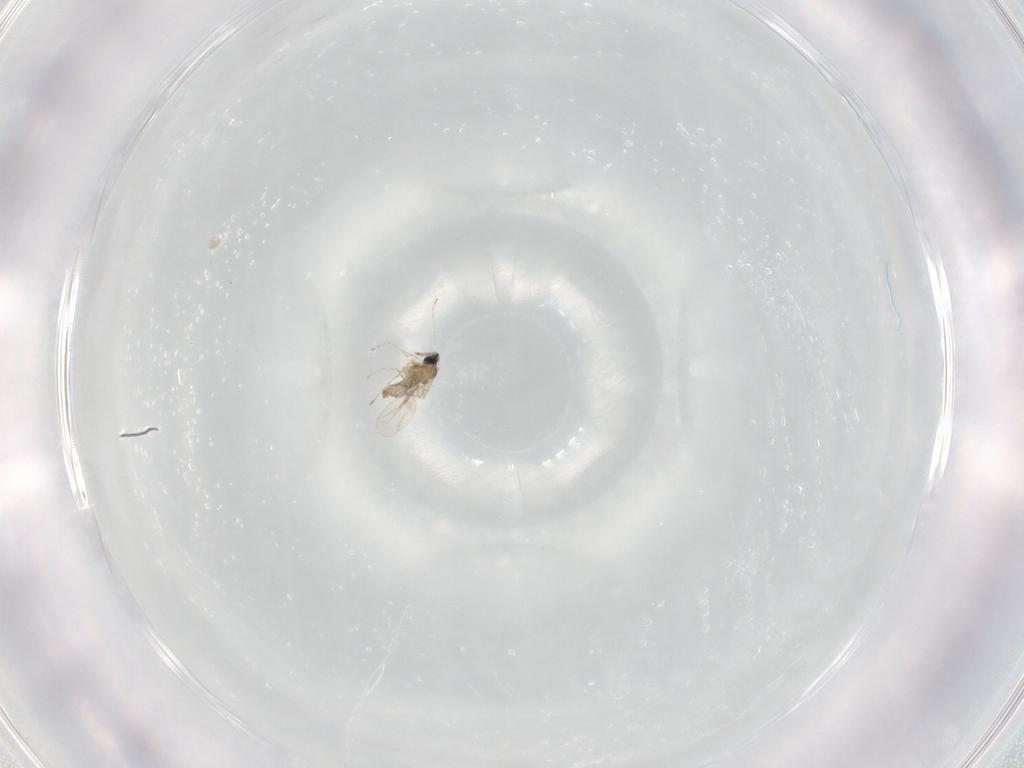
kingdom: Animalia
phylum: Arthropoda
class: Insecta
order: Diptera
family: Cecidomyiidae
